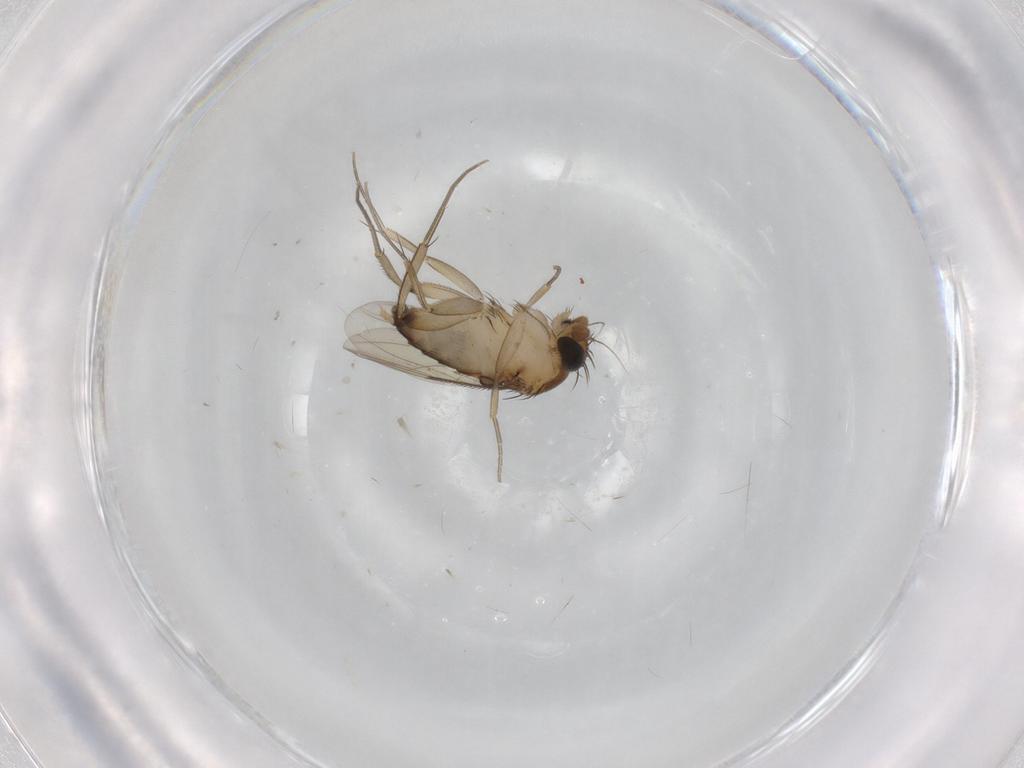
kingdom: Animalia
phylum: Arthropoda
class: Insecta
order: Diptera
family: Phoridae
